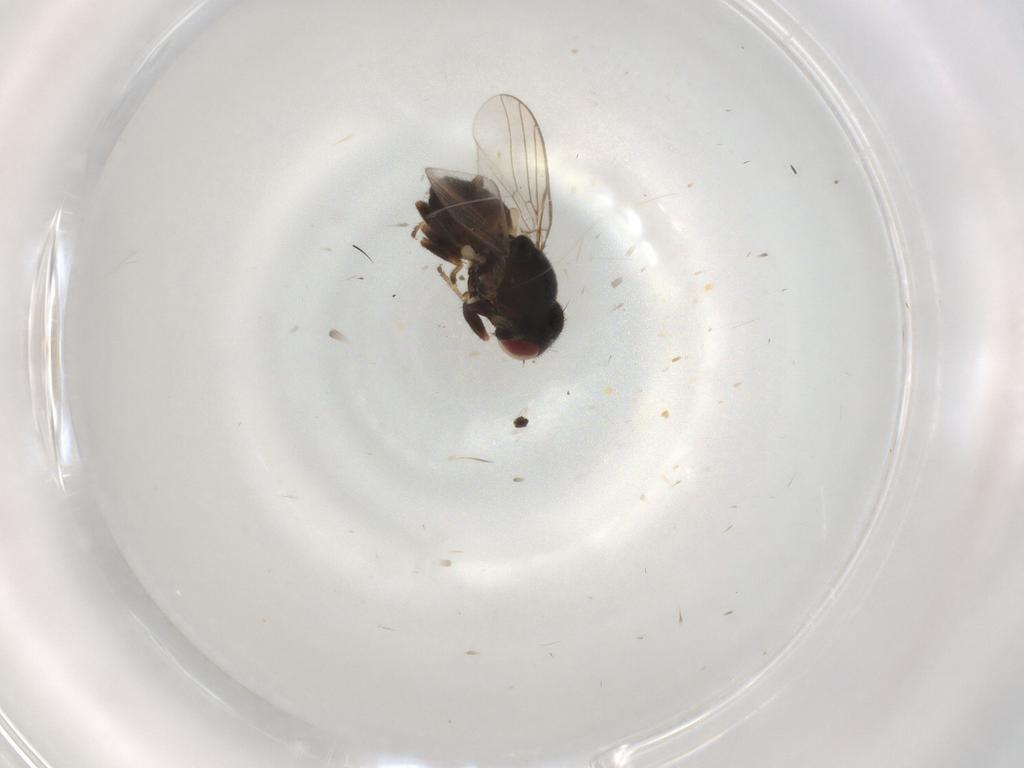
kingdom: Animalia
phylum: Arthropoda
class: Insecta
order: Diptera
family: Chloropidae
